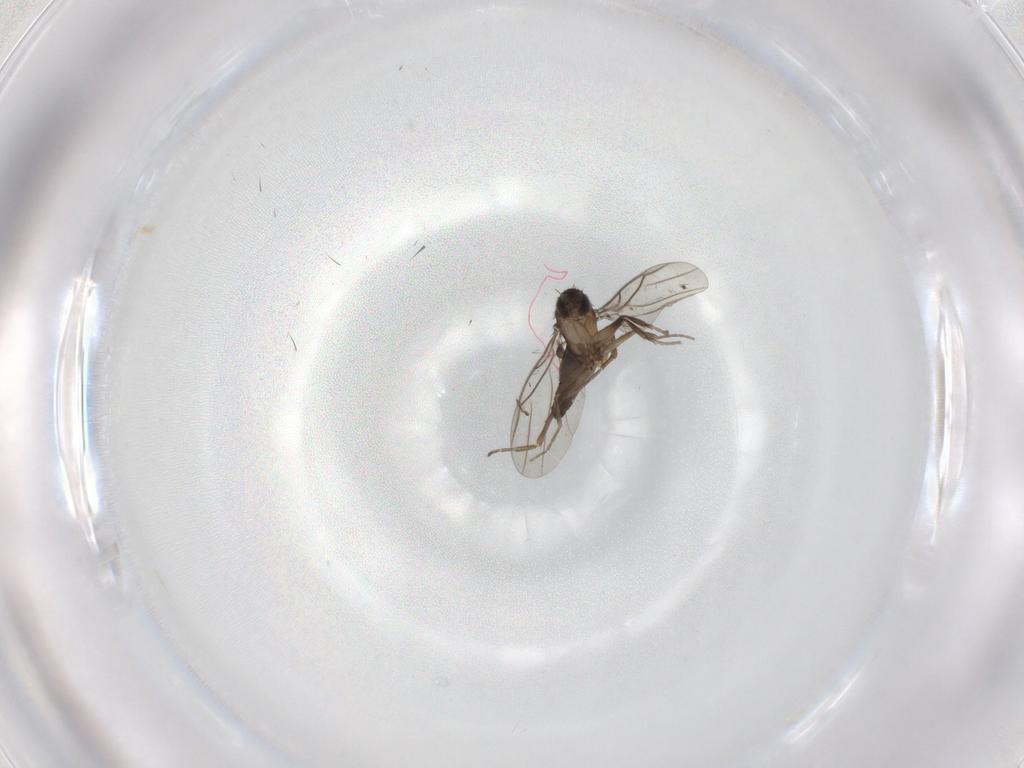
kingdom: Animalia
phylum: Arthropoda
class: Insecta
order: Diptera
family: Phoridae
